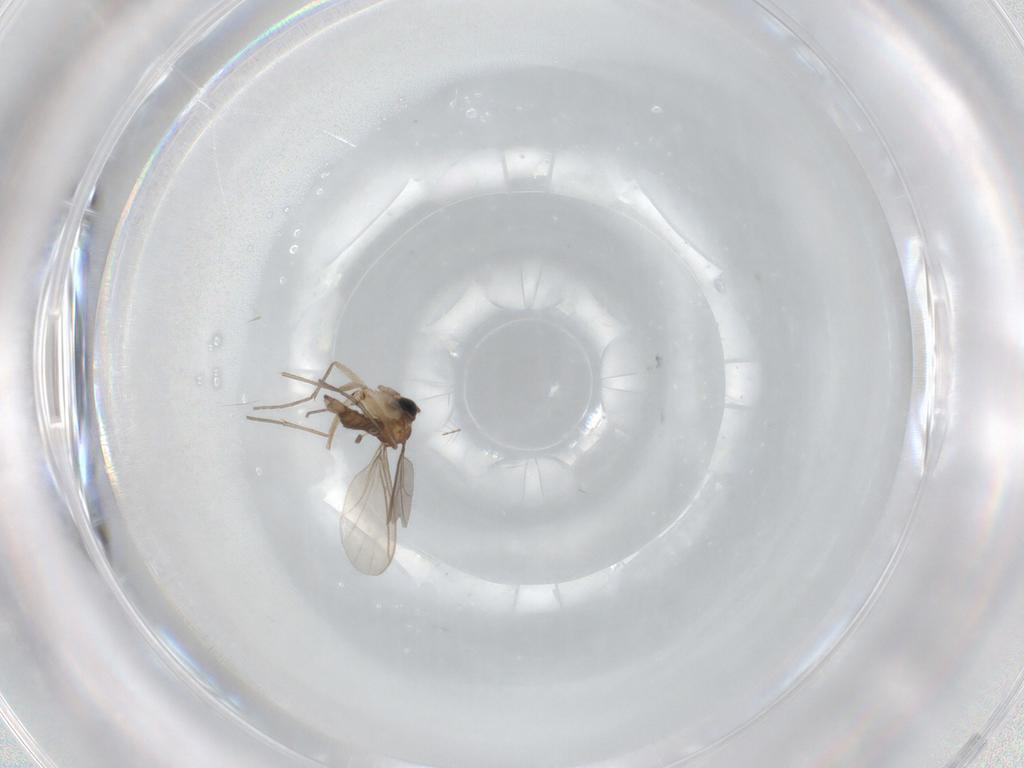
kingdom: Animalia
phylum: Arthropoda
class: Insecta
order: Diptera
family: Sciaridae
